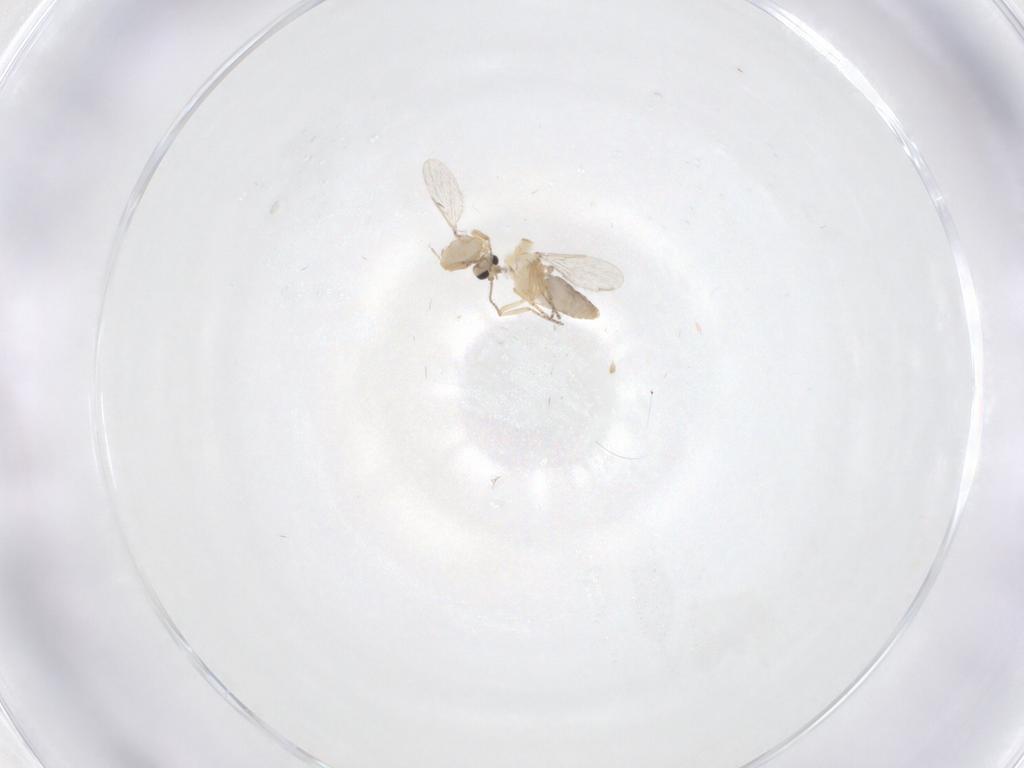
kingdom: Animalia
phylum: Arthropoda
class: Insecta
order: Diptera
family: Ceratopogonidae
